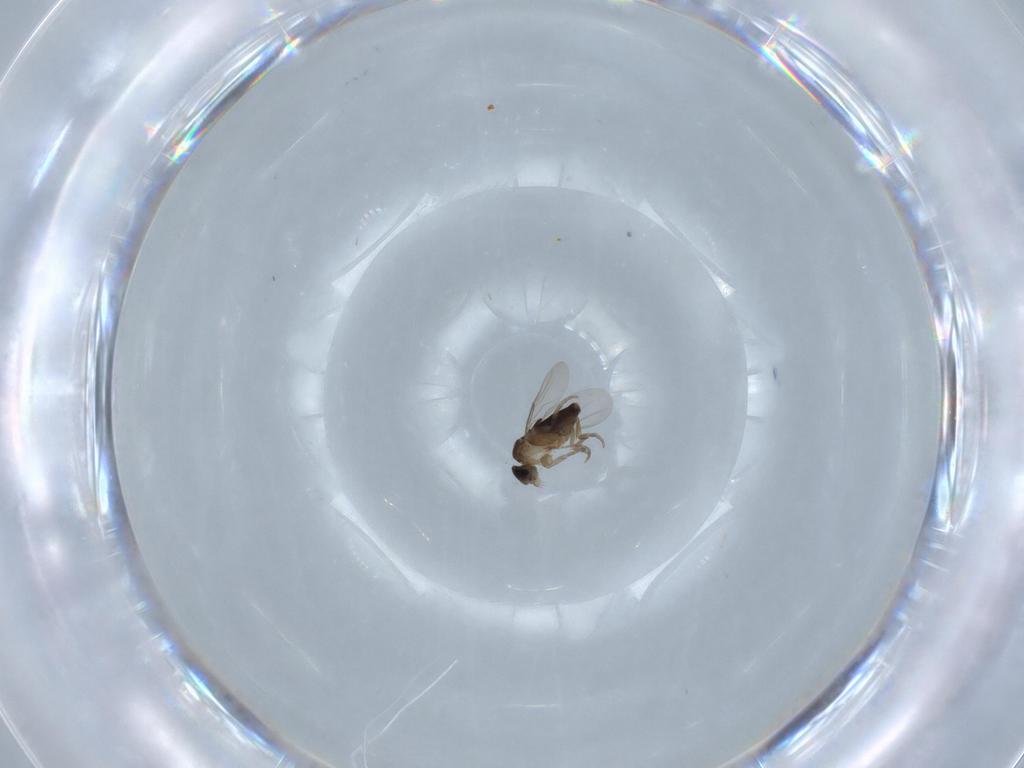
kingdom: Animalia
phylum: Arthropoda
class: Insecta
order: Diptera
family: Phoridae
